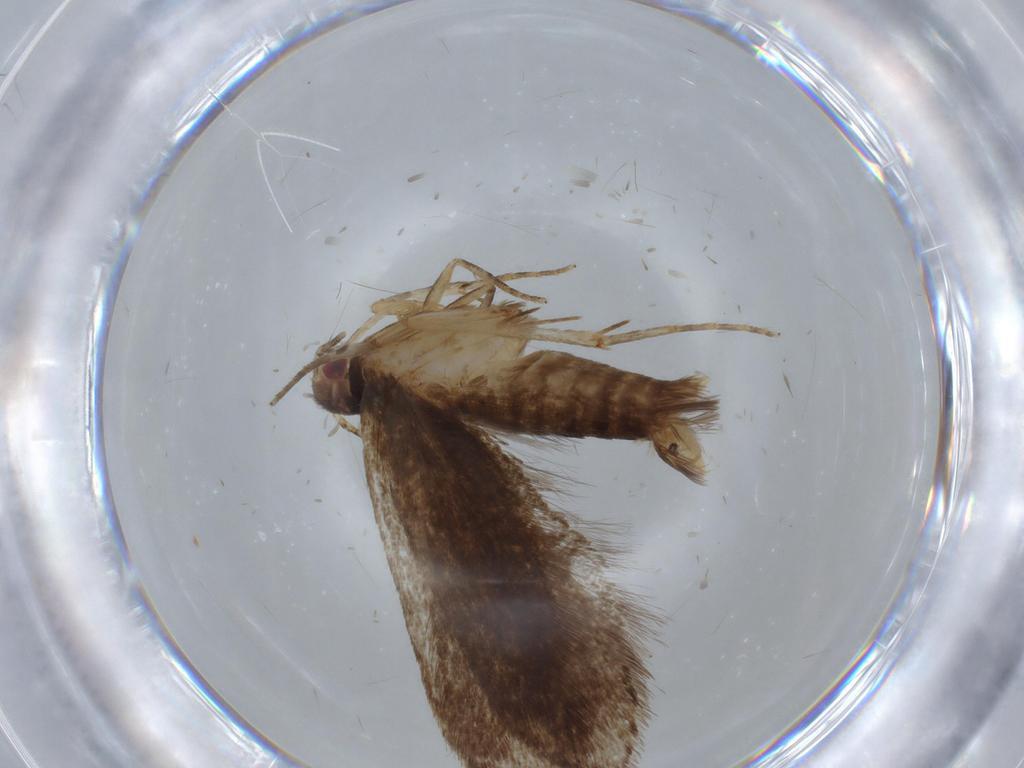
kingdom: Animalia
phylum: Arthropoda
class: Insecta
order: Lepidoptera
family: Gelechiidae
